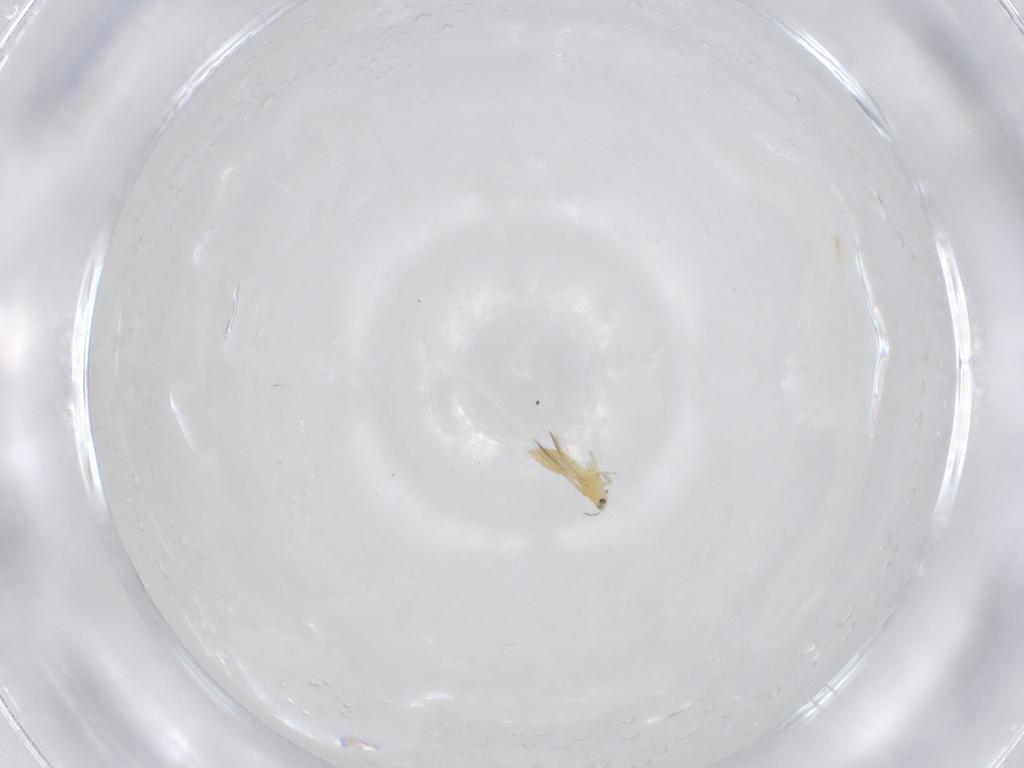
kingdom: Animalia
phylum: Arthropoda
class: Insecta
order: Thysanoptera
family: Thripidae
